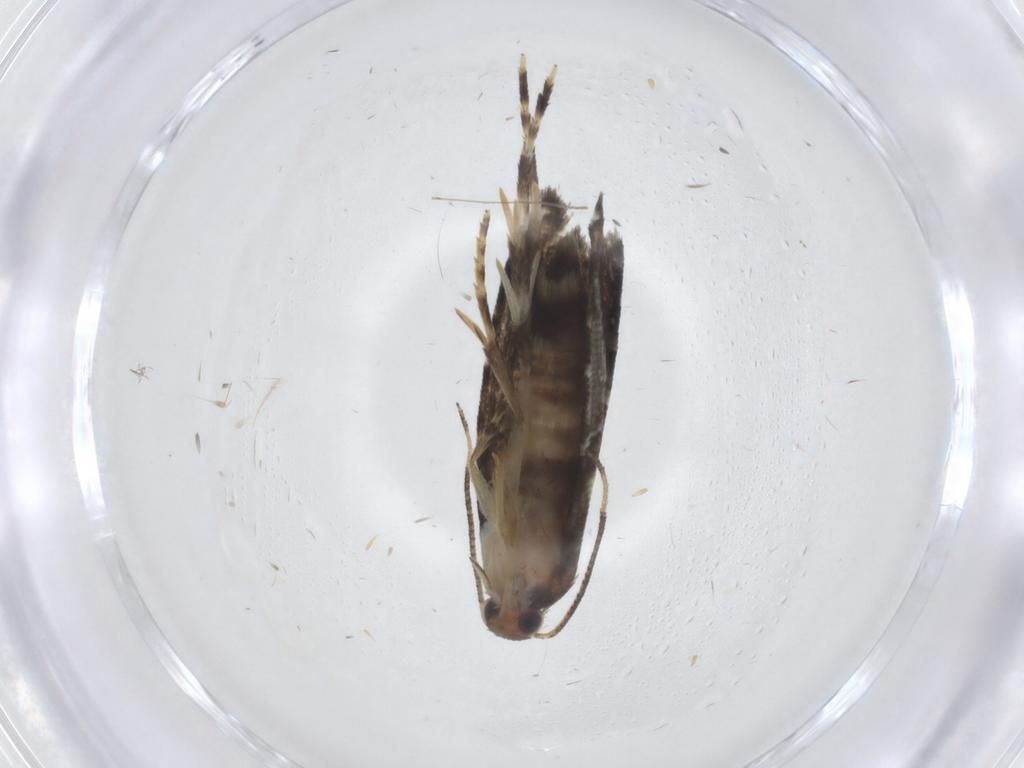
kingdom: Animalia
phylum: Arthropoda
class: Insecta
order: Lepidoptera
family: Glyphipterigidae
